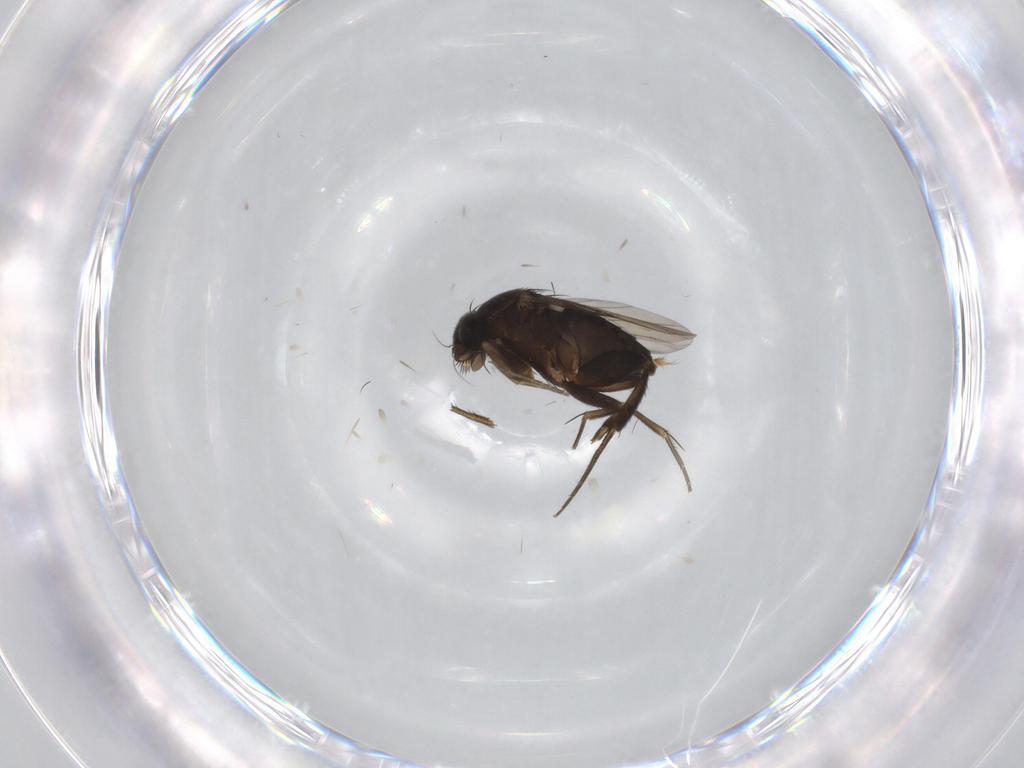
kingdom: Animalia
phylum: Arthropoda
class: Insecta
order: Diptera
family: Phoridae
